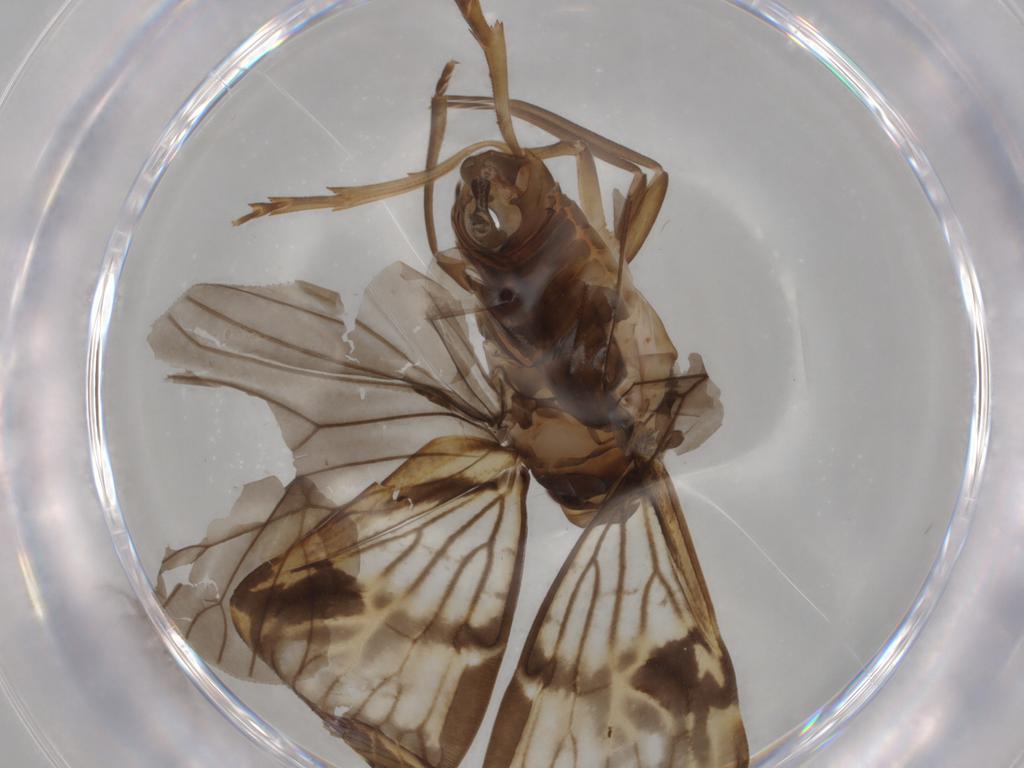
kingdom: Animalia
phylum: Arthropoda
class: Insecta
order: Hemiptera
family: Cixiidae
